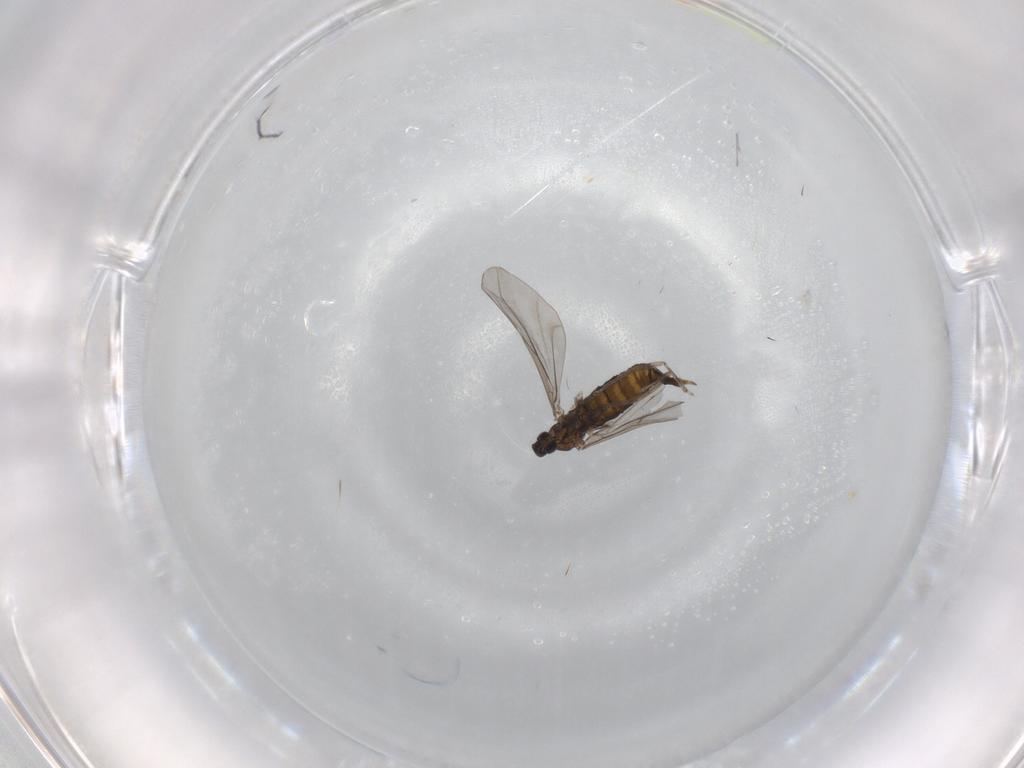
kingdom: Animalia
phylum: Arthropoda
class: Insecta
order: Diptera
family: Cecidomyiidae
